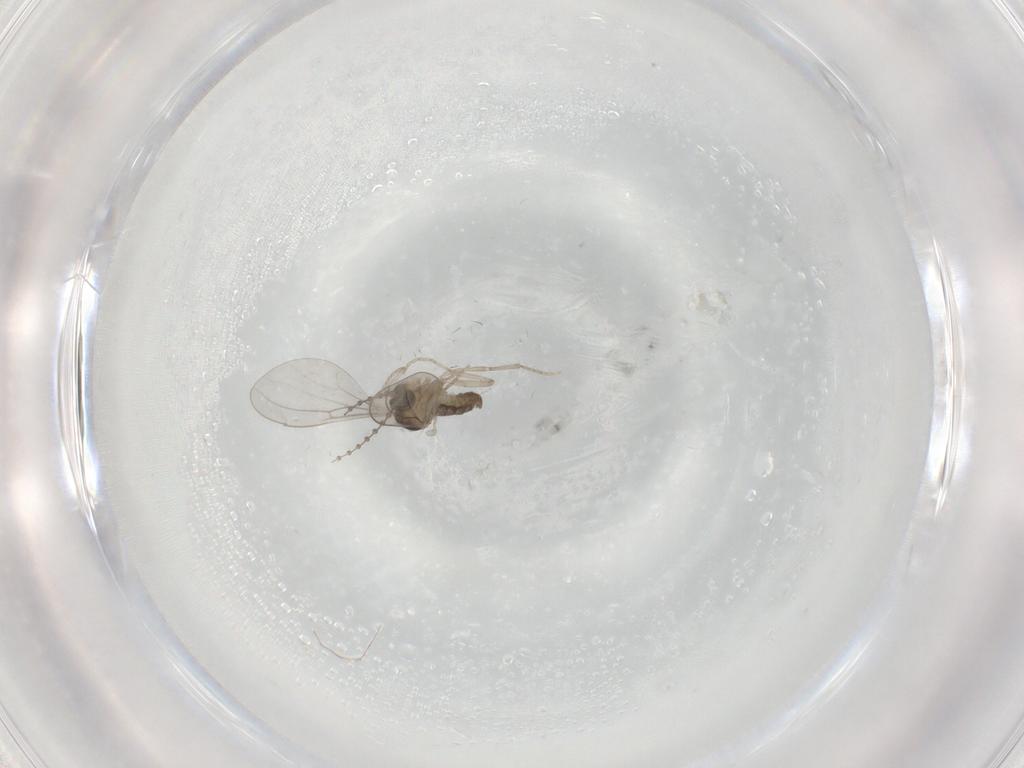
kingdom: Animalia
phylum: Arthropoda
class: Insecta
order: Diptera
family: Cecidomyiidae
